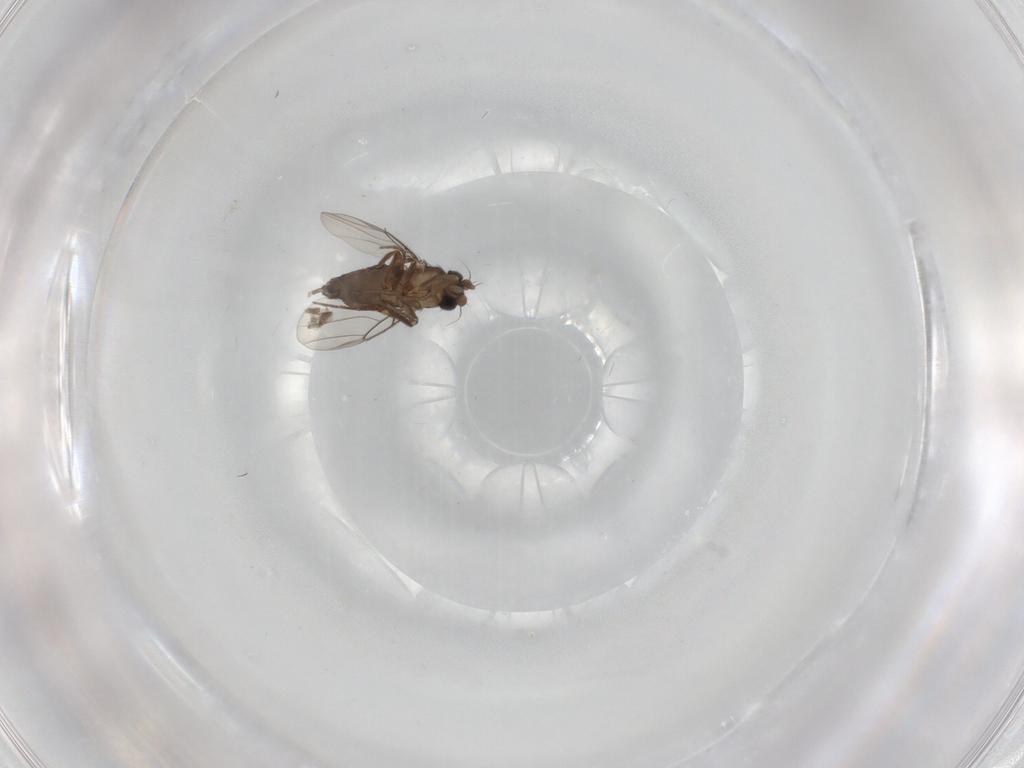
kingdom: Animalia
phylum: Arthropoda
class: Insecta
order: Diptera
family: Phoridae
